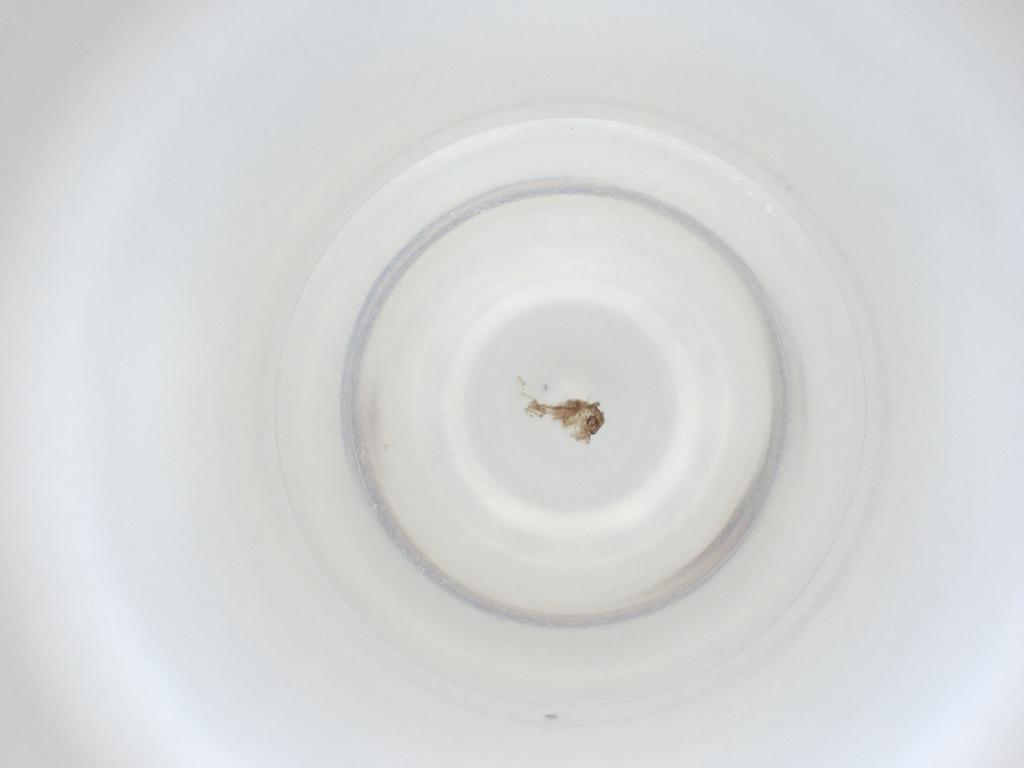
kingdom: Animalia
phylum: Arthropoda
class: Insecta
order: Diptera
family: Cecidomyiidae
